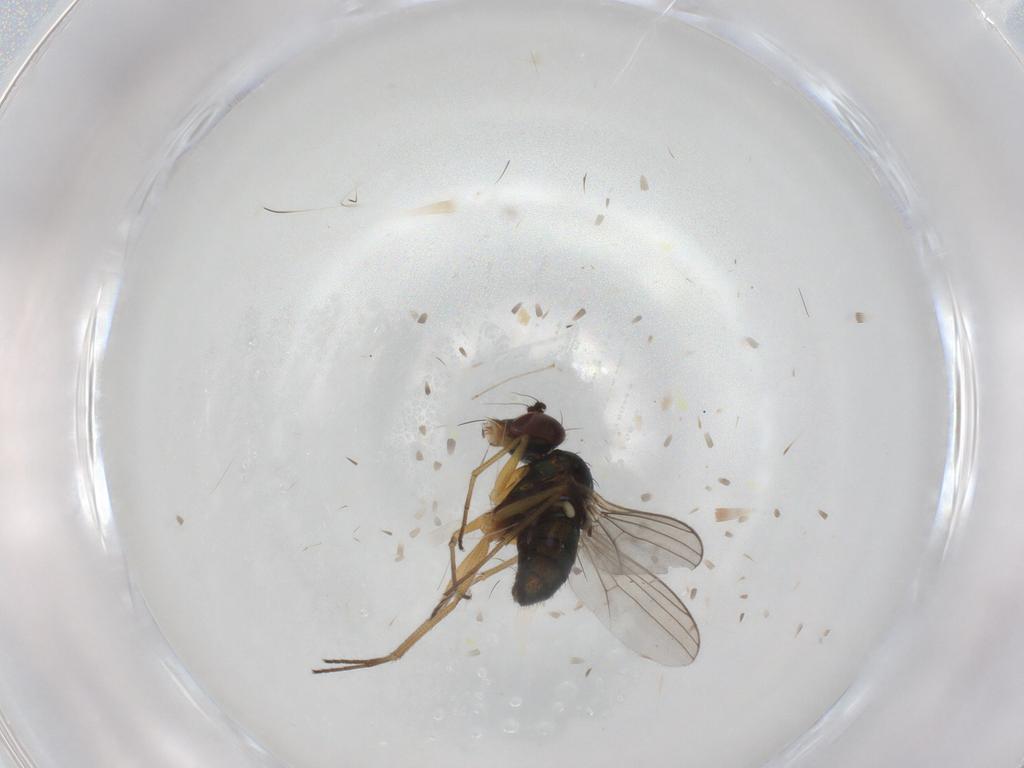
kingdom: Animalia
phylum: Arthropoda
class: Insecta
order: Diptera
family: Dolichopodidae
